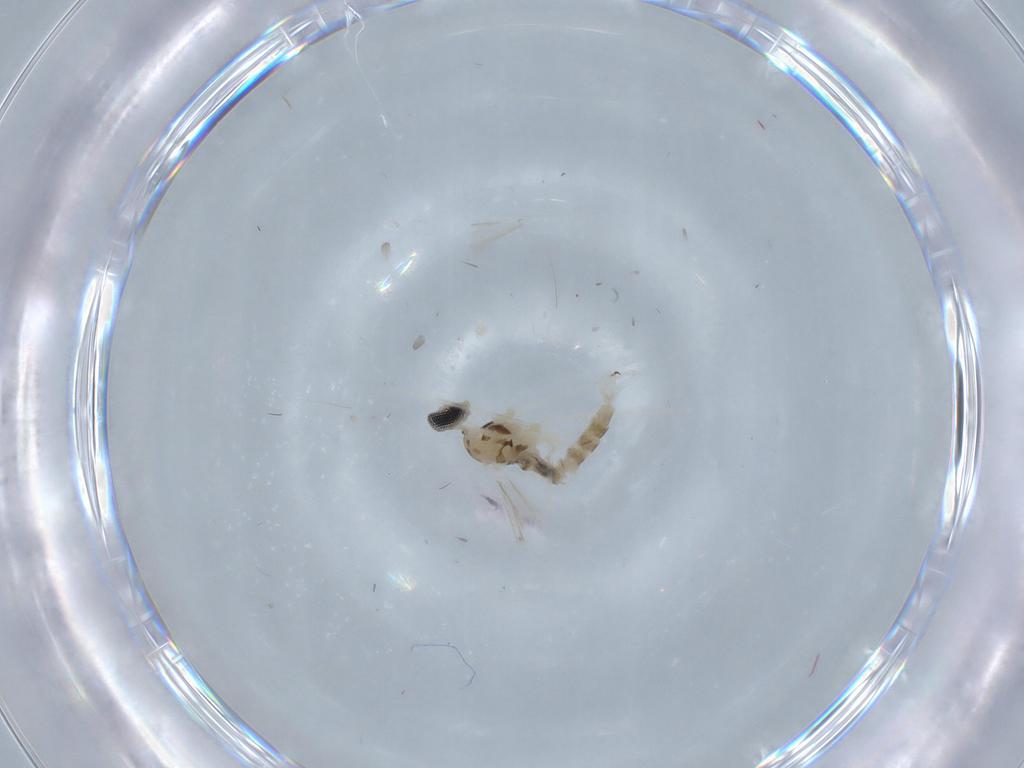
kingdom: Animalia
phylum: Arthropoda
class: Insecta
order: Diptera
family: Cecidomyiidae
